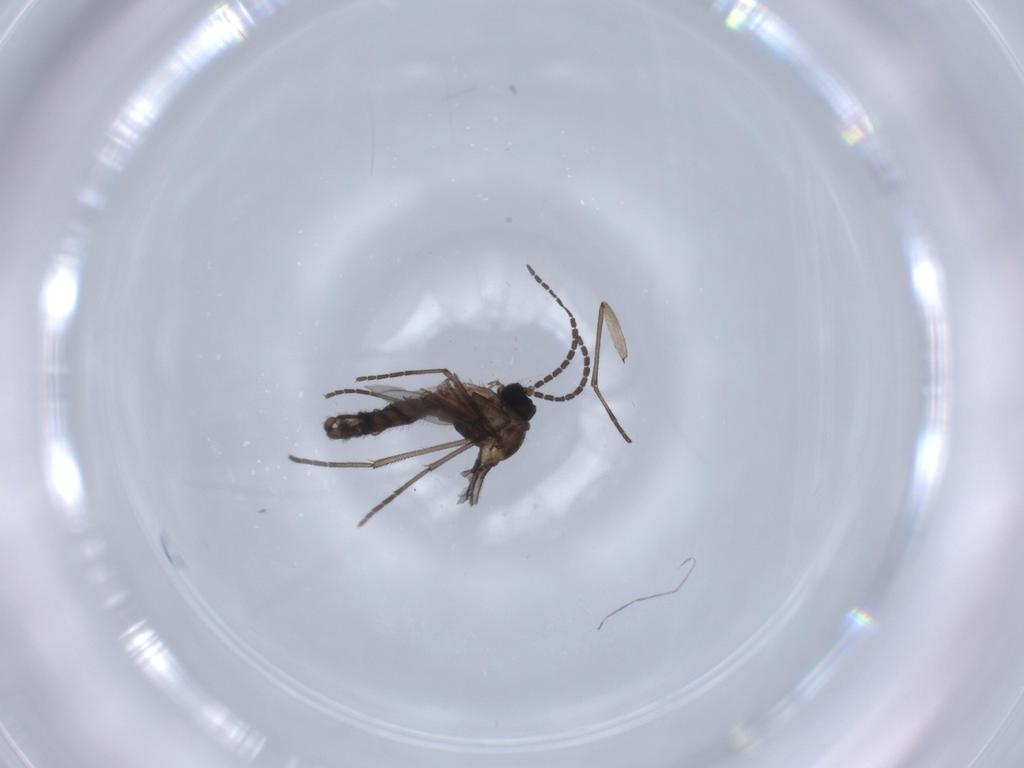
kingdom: Animalia
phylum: Arthropoda
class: Insecta
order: Diptera
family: Sciaridae
